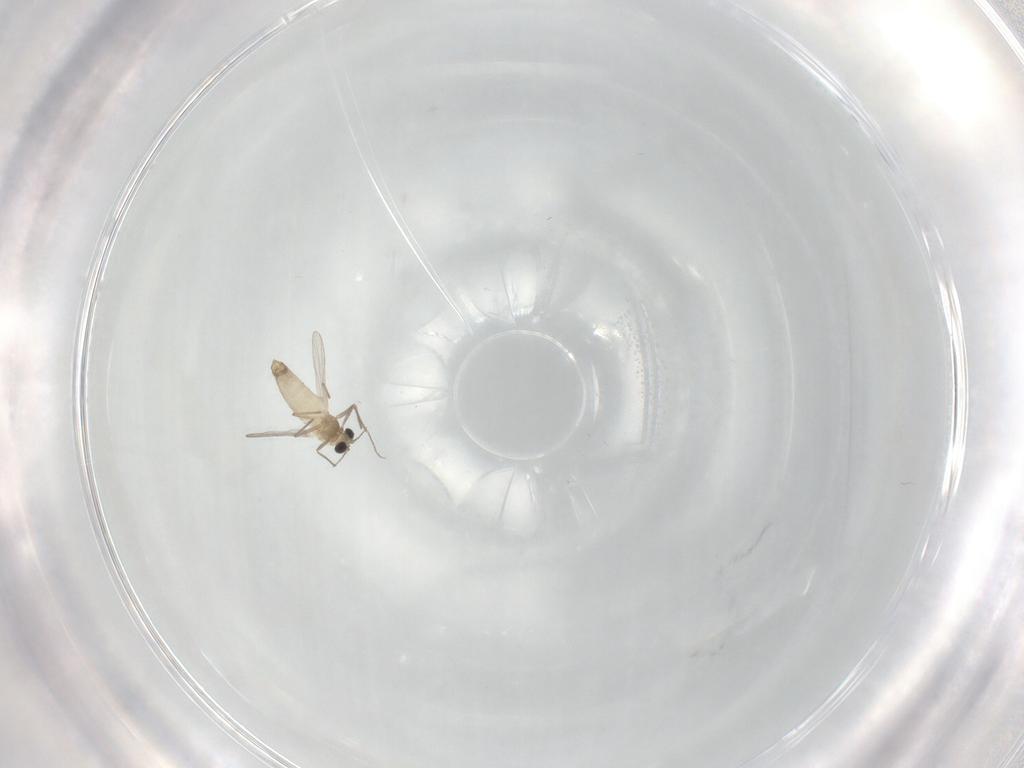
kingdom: Animalia
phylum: Arthropoda
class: Insecta
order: Diptera
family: Chironomidae
